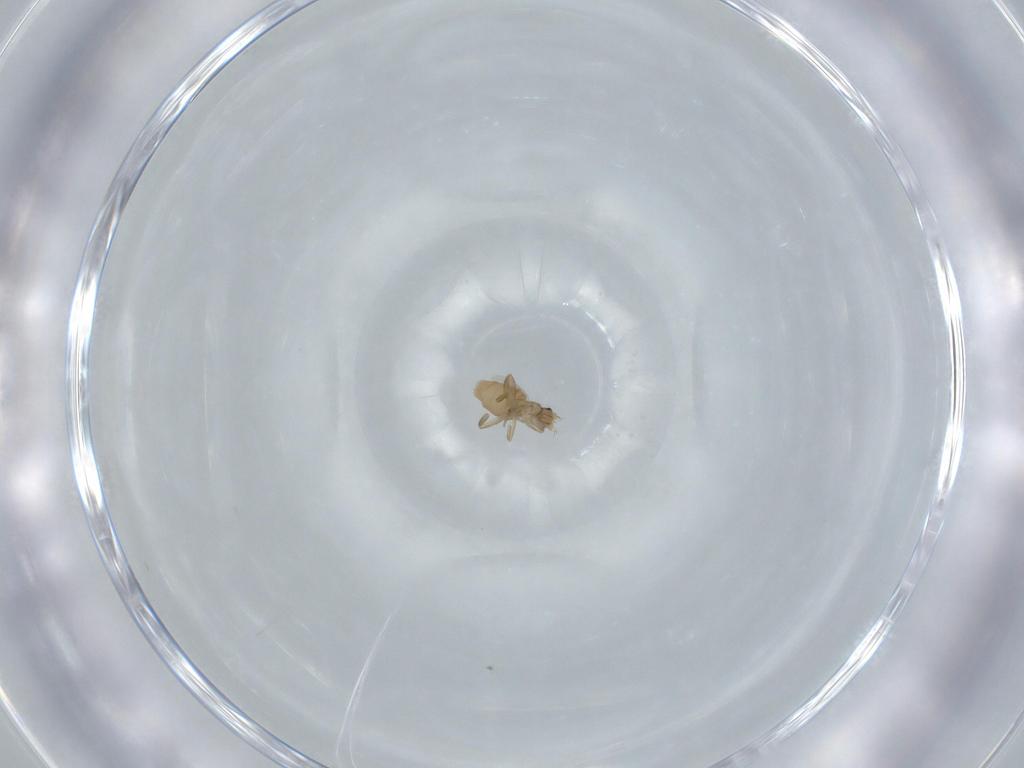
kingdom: Animalia
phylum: Arthropoda
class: Insecta
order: Diptera
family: Phoridae
